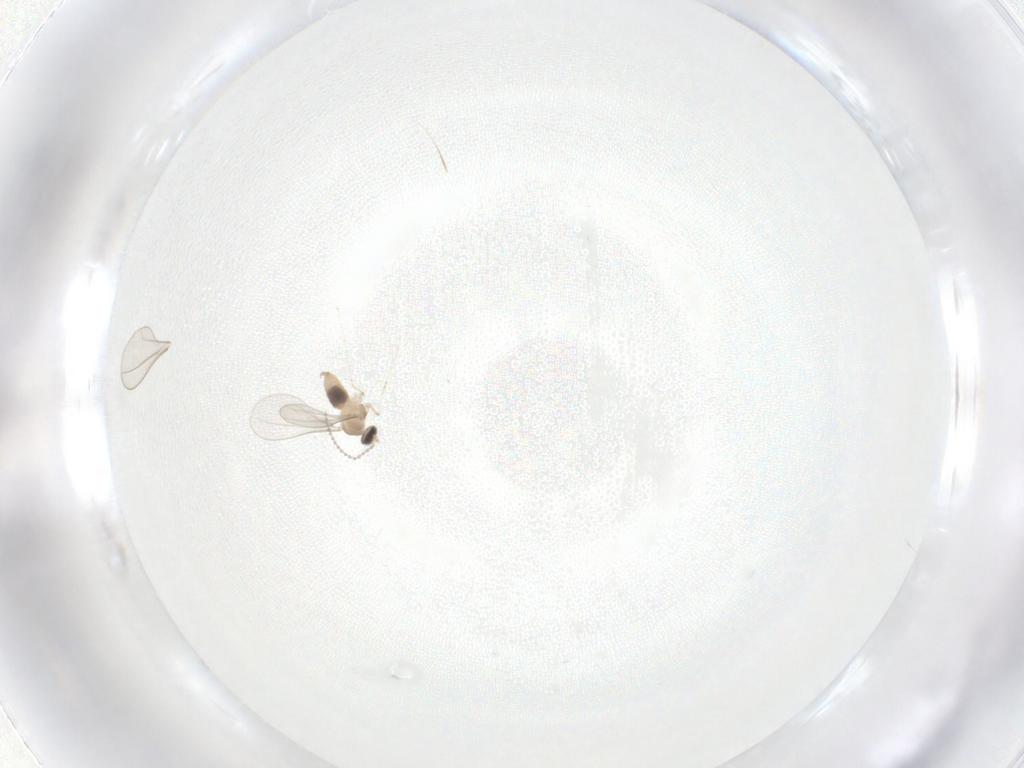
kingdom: Animalia
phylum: Arthropoda
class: Insecta
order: Diptera
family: Cecidomyiidae
